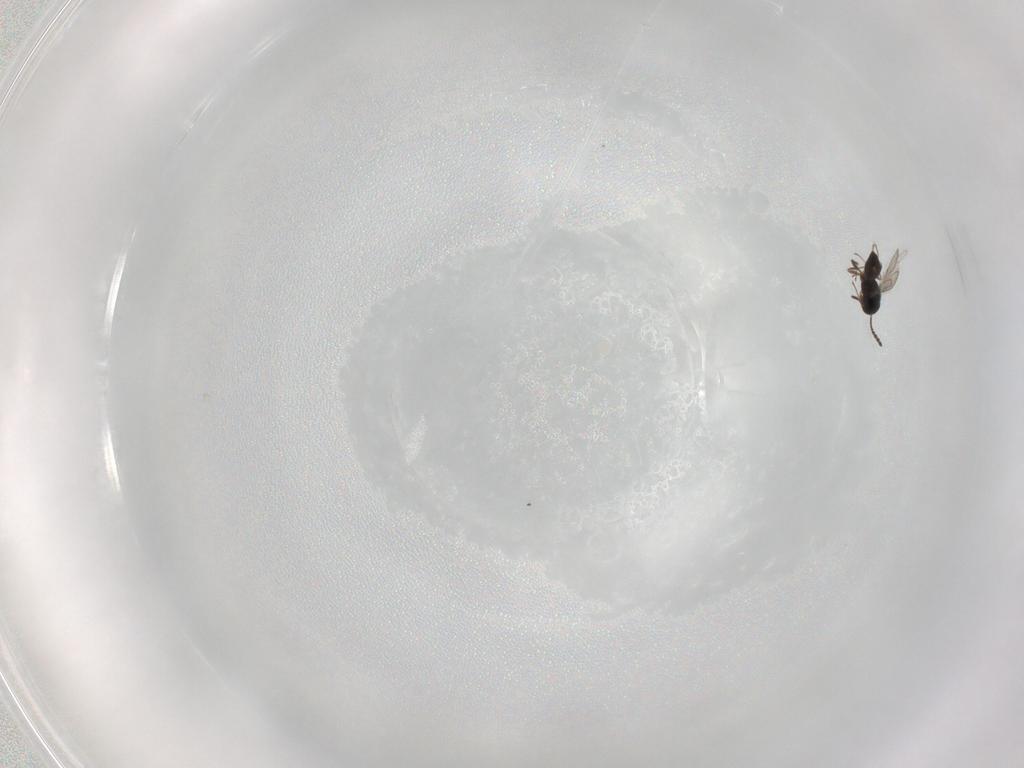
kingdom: Animalia
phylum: Arthropoda
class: Insecta
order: Hymenoptera
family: Scelionidae
